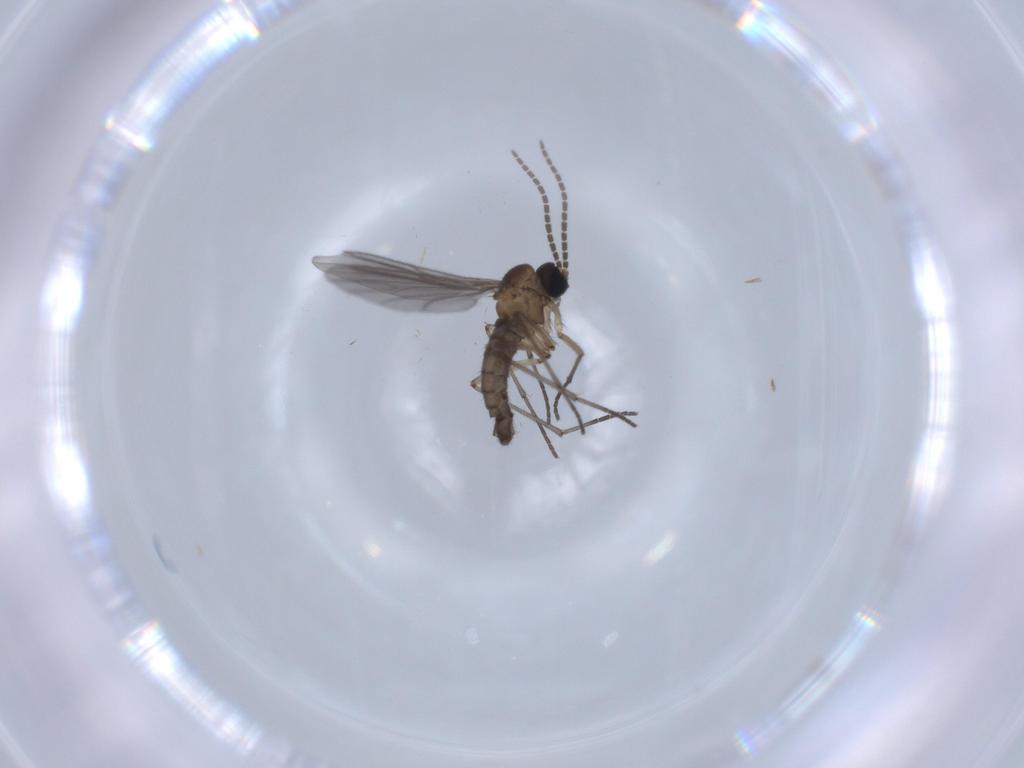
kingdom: Animalia
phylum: Arthropoda
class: Insecta
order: Diptera
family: Sciaridae
